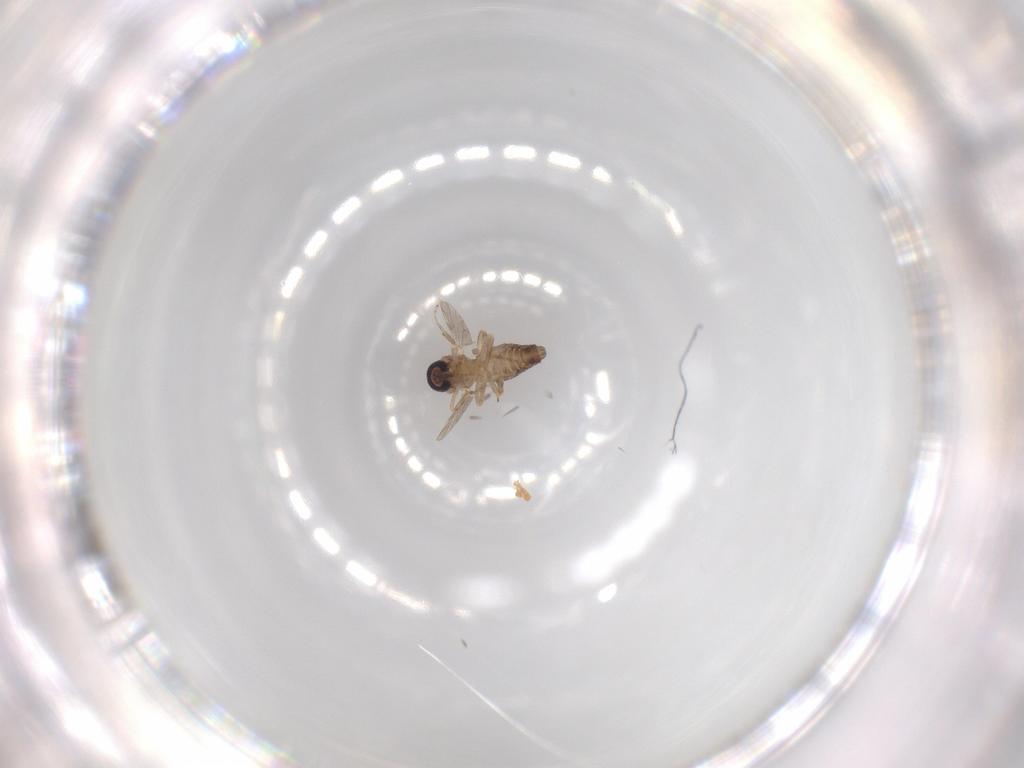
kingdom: Animalia
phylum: Arthropoda
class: Insecta
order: Diptera
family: Ceratopogonidae
